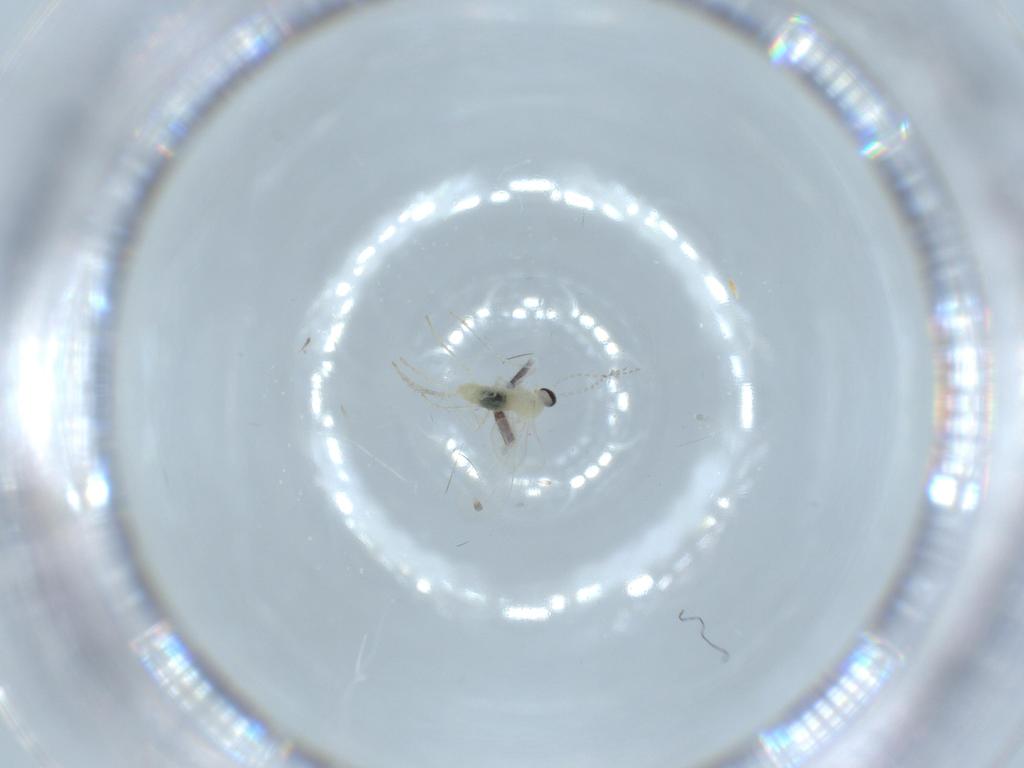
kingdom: Animalia
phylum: Arthropoda
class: Insecta
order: Diptera
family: Cecidomyiidae
